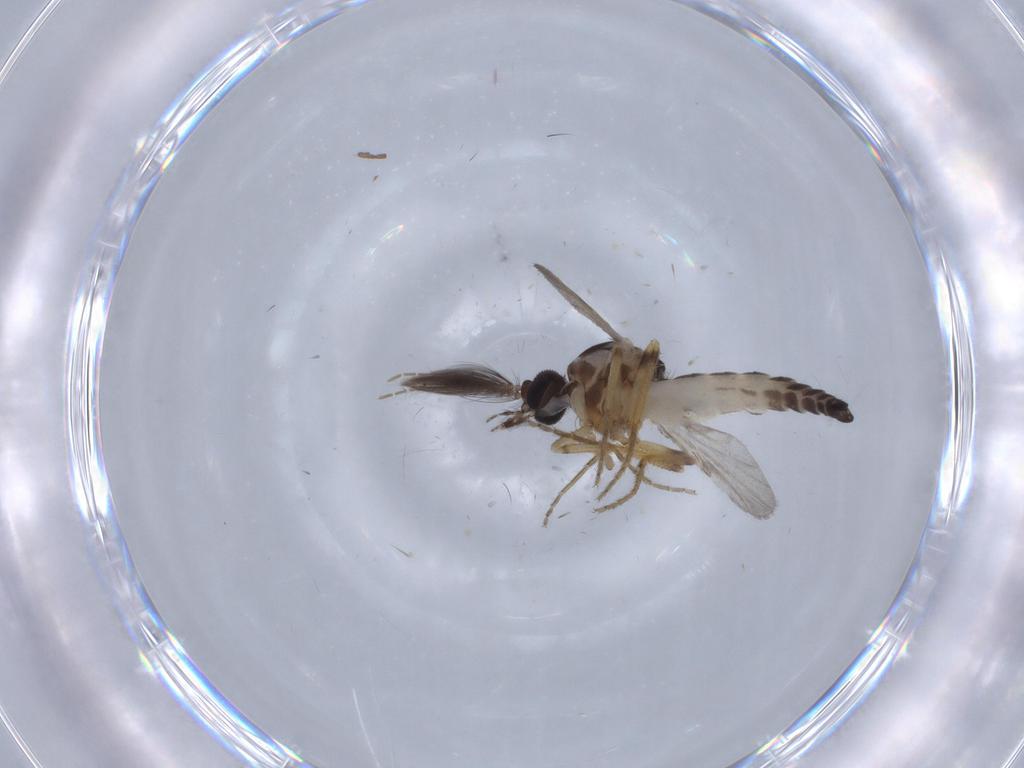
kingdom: Animalia
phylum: Arthropoda
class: Insecta
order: Diptera
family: Ceratopogonidae
